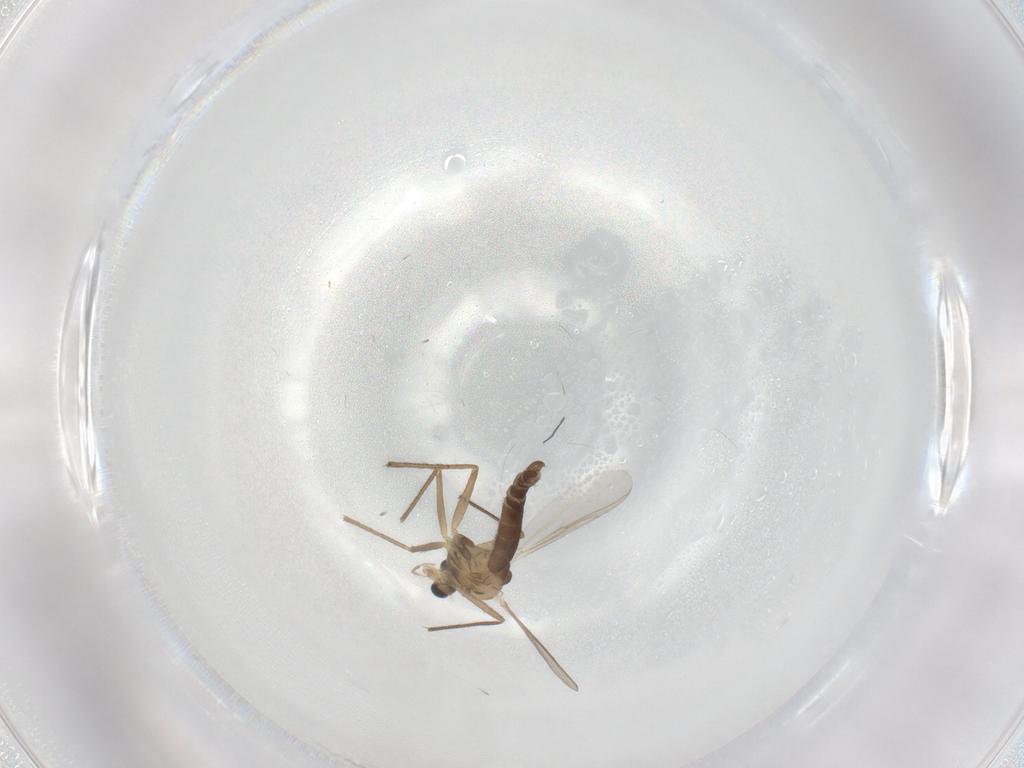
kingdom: Animalia
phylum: Arthropoda
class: Insecta
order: Diptera
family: Chironomidae
